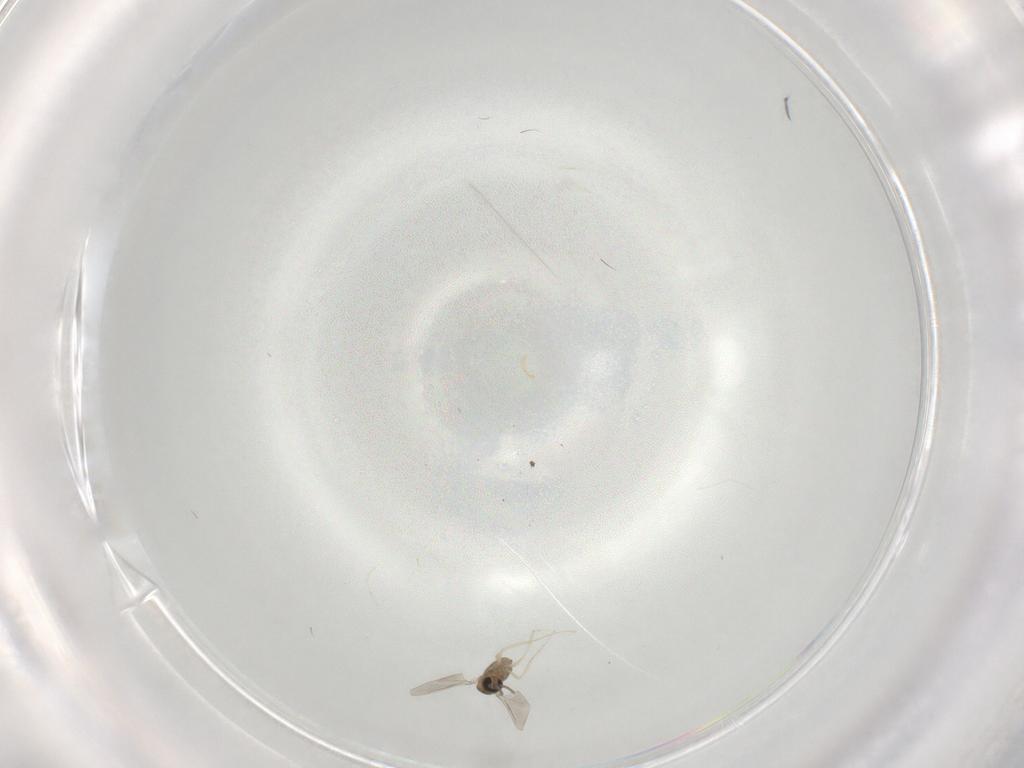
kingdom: Animalia
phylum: Arthropoda
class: Insecta
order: Diptera
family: Cecidomyiidae
